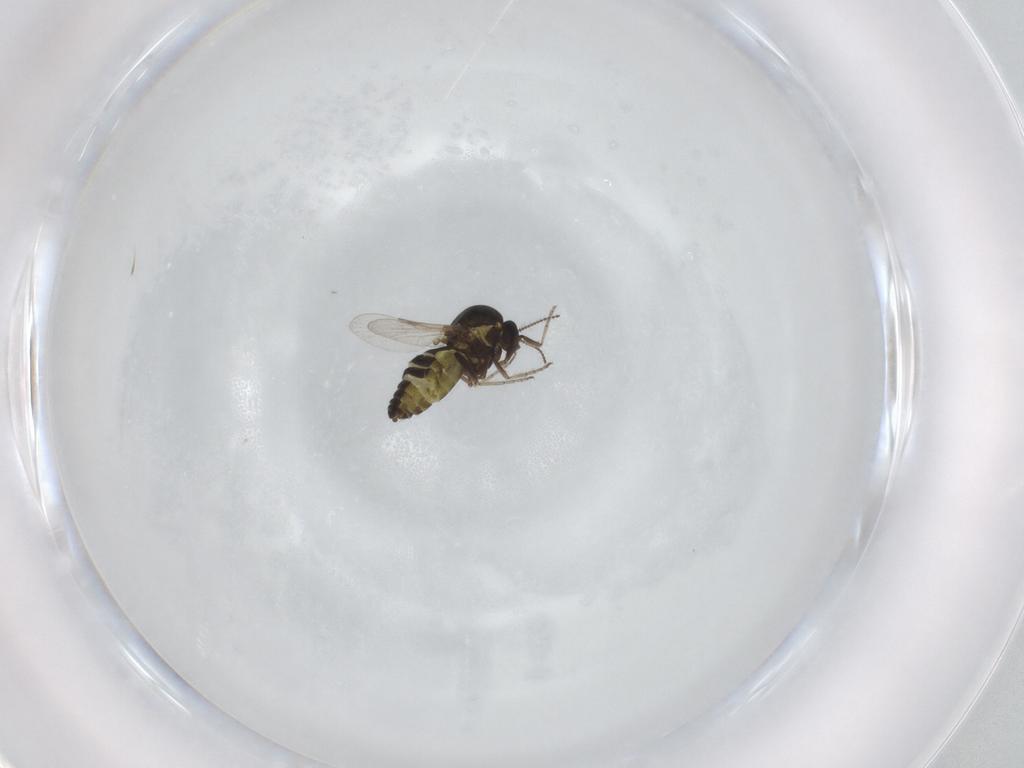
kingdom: Animalia
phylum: Arthropoda
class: Insecta
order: Diptera
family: Ceratopogonidae
